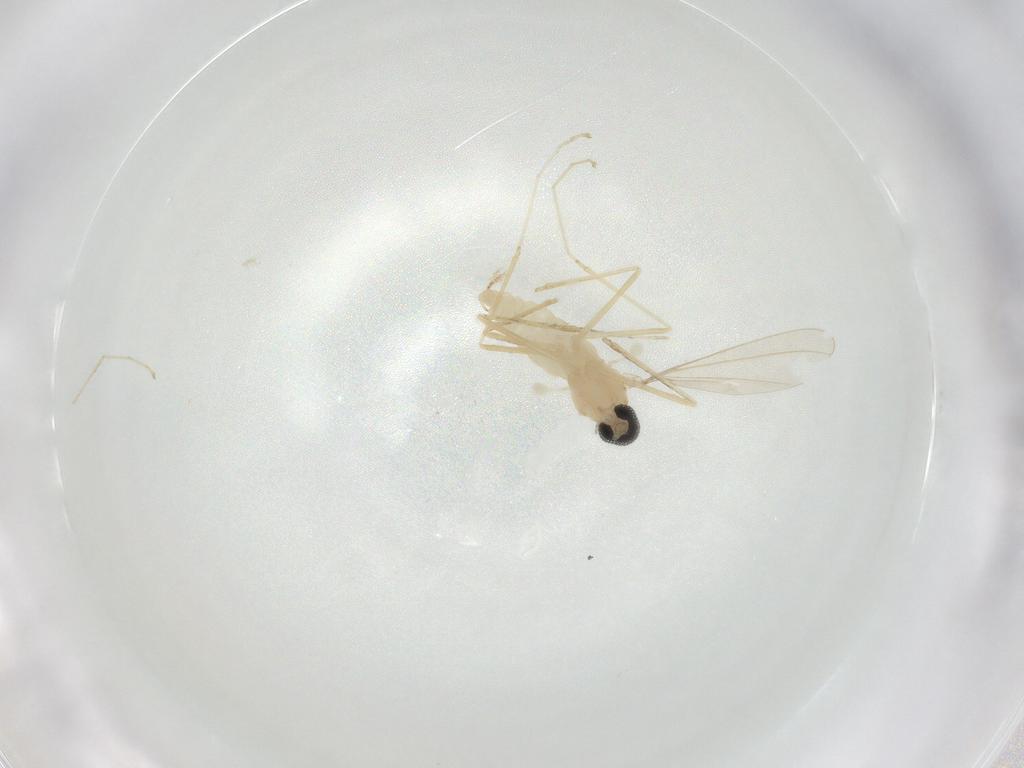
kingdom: Animalia
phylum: Arthropoda
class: Insecta
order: Diptera
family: Cecidomyiidae
